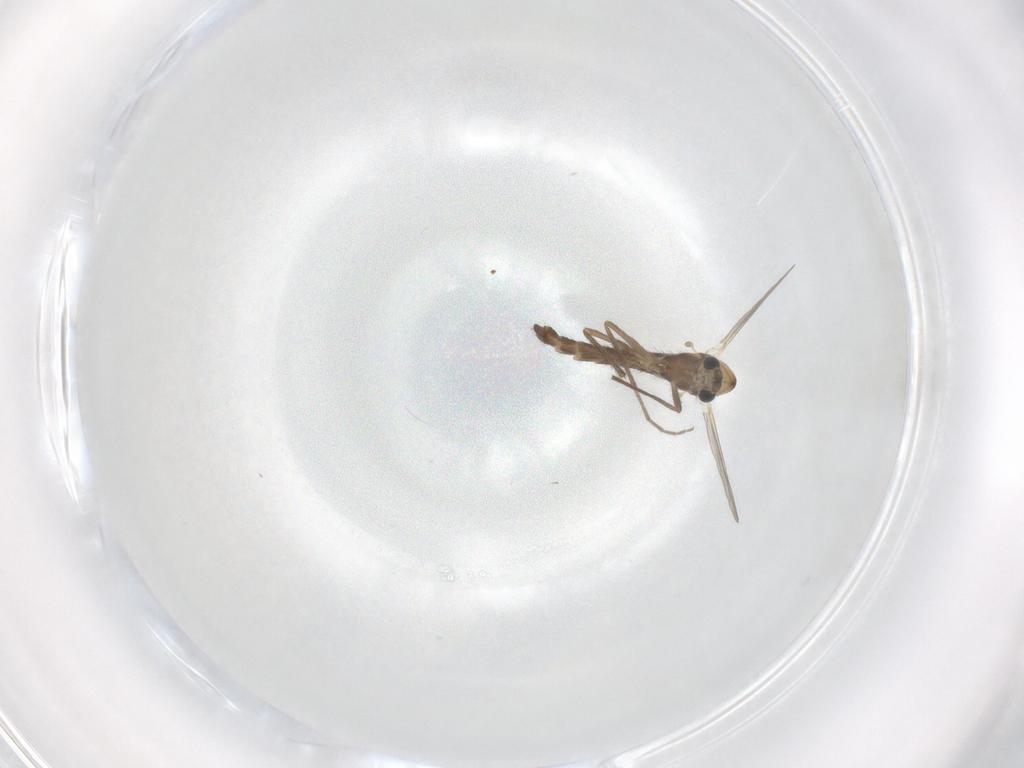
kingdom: Animalia
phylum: Arthropoda
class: Insecta
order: Diptera
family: Chironomidae
